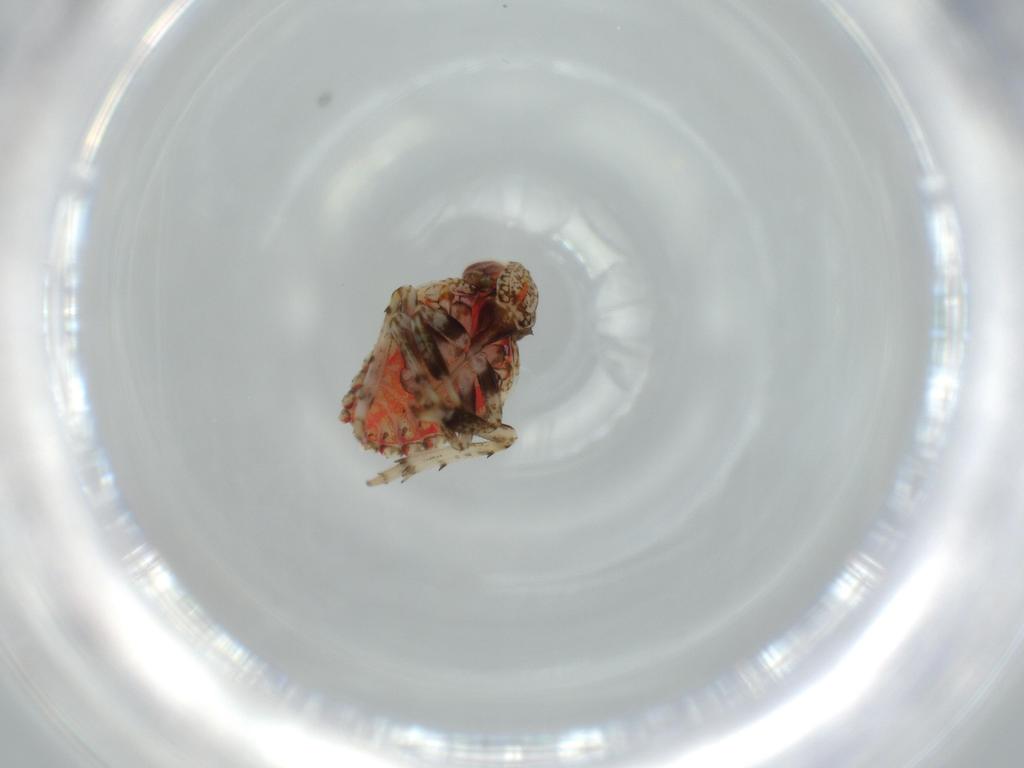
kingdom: Animalia
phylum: Arthropoda
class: Insecta
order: Hemiptera
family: Issidae
